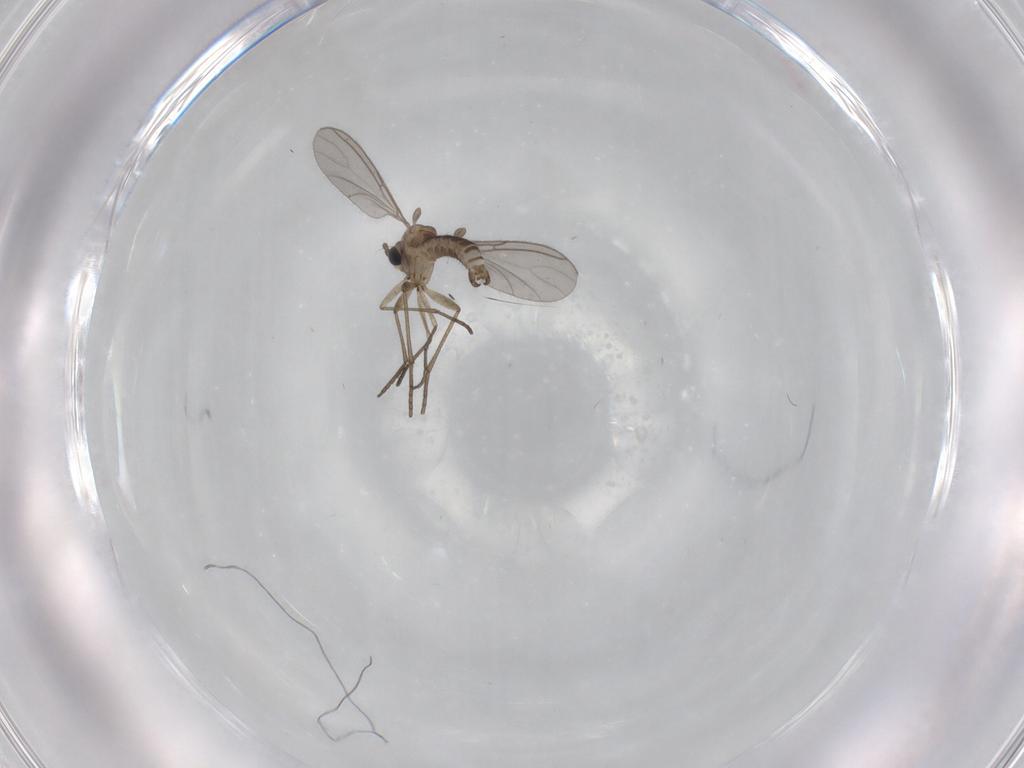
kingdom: Animalia
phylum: Arthropoda
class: Insecta
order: Diptera
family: Sciaridae
